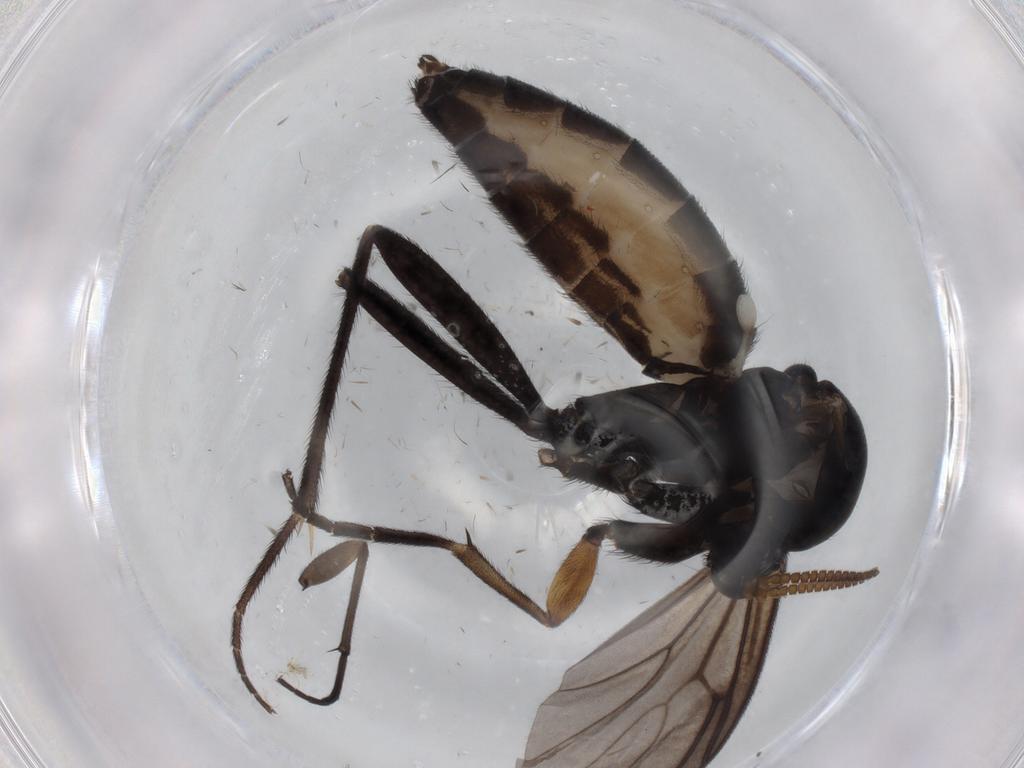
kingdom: Animalia
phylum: Arthropoda
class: Insecta
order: Diptera
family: Mycetophilidae
